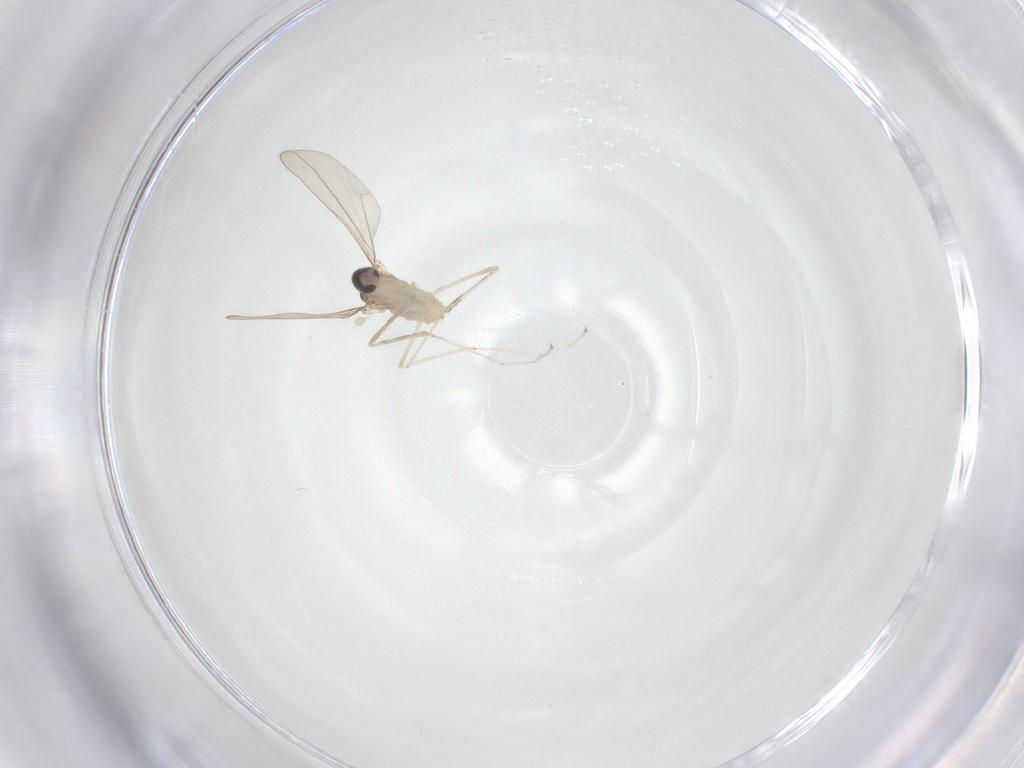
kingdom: Animalia
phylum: Arthropoda
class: Insecta
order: Diptera
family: Cecidomyiidae
